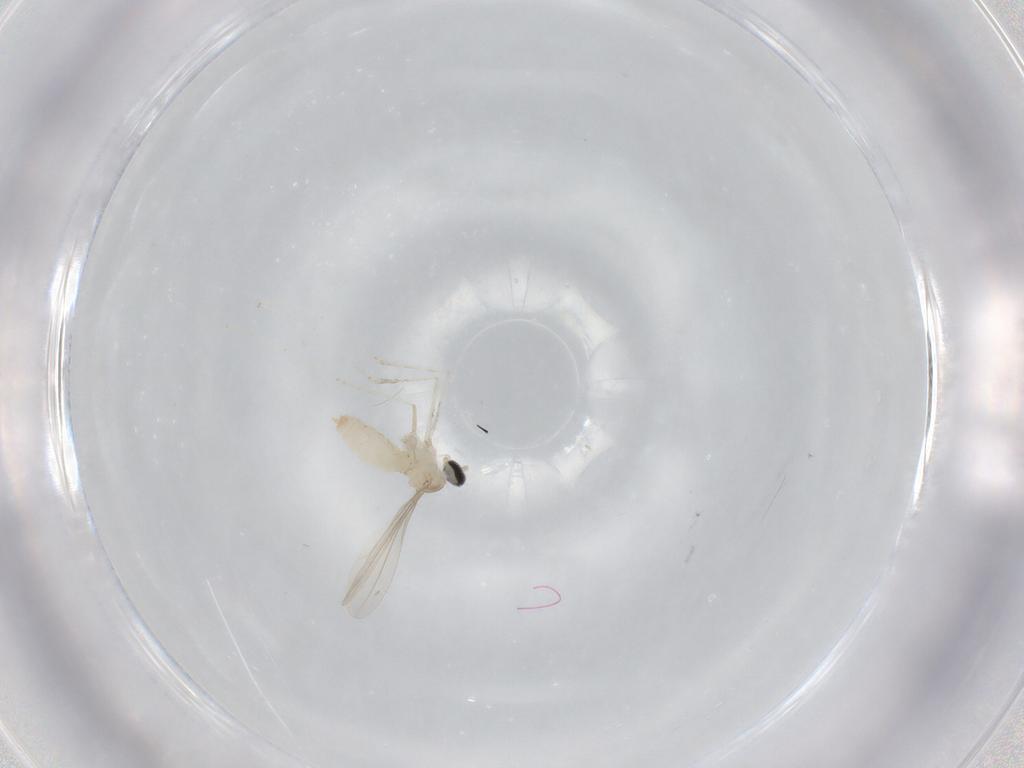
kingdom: Animalia
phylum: Arthropoda
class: Insecta
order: Diptera
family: Chironomidae
